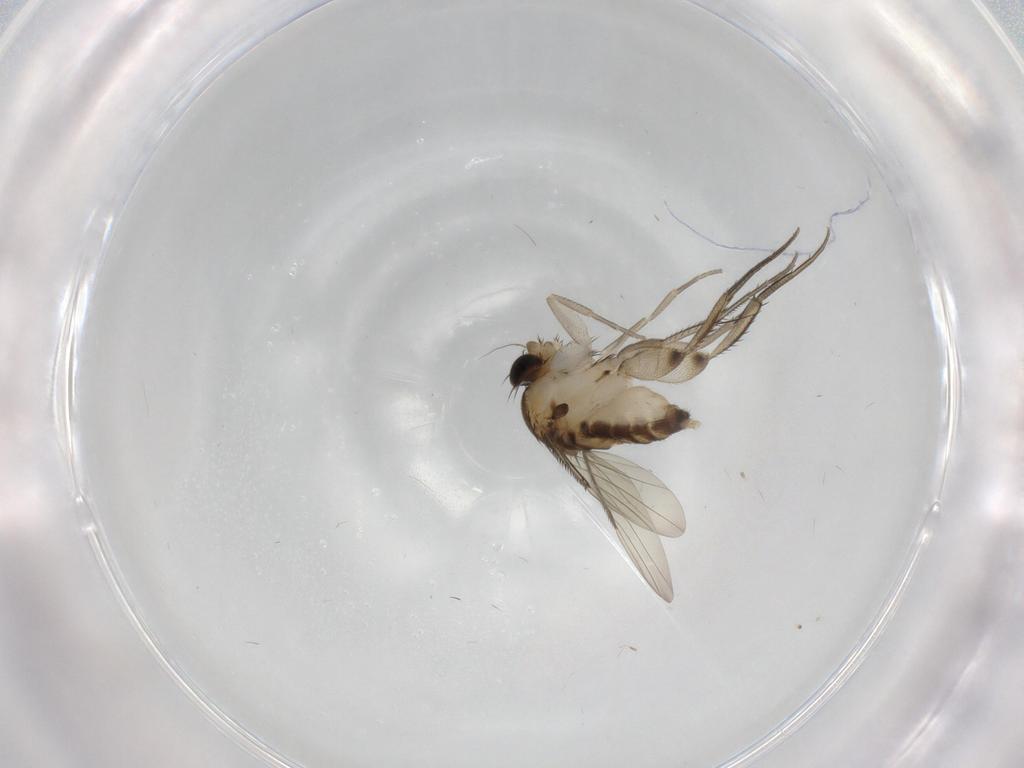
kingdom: Animalia
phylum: Arthropoda
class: Insecta
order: Diptera
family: Phoridae
